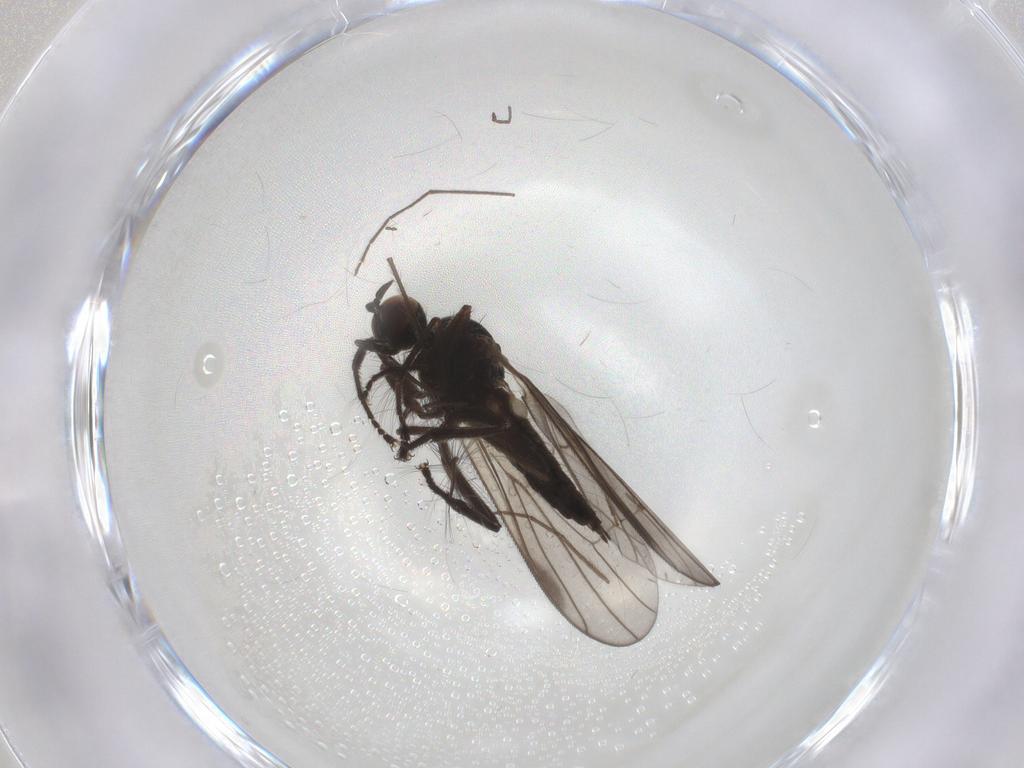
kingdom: Animalia
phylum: Arthropoda
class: Insecta
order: Diptera
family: Hybotidae
